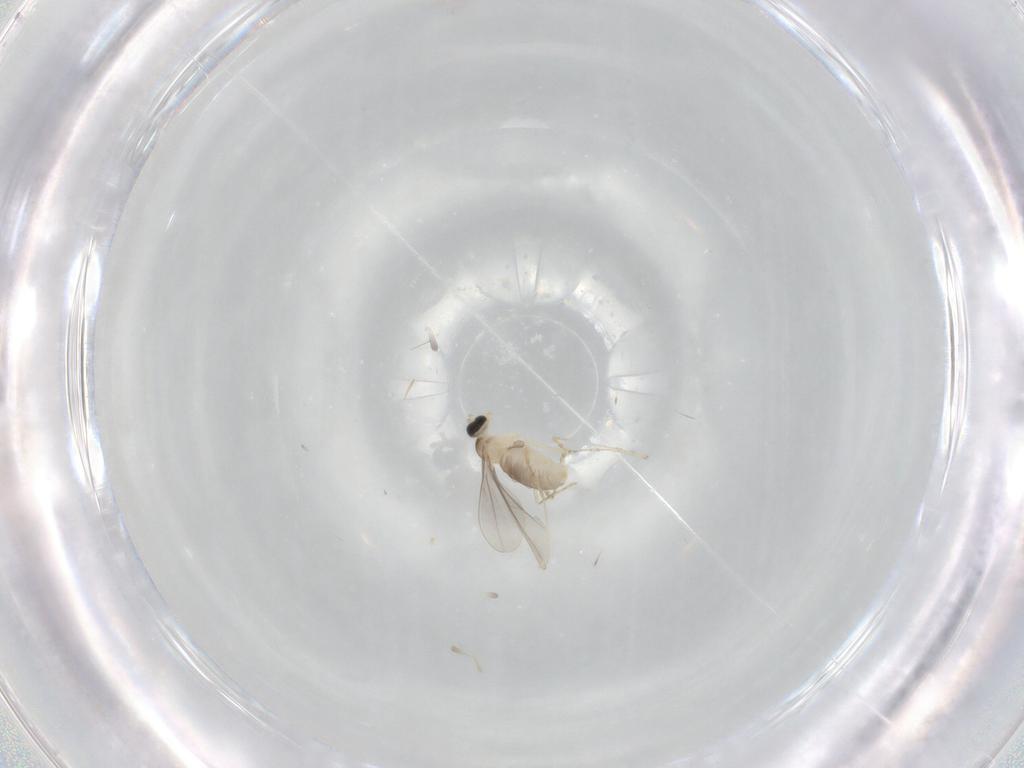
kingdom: Animalia
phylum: Arthropoda
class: Insecta
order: Diptera
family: Cecidomyiidae
